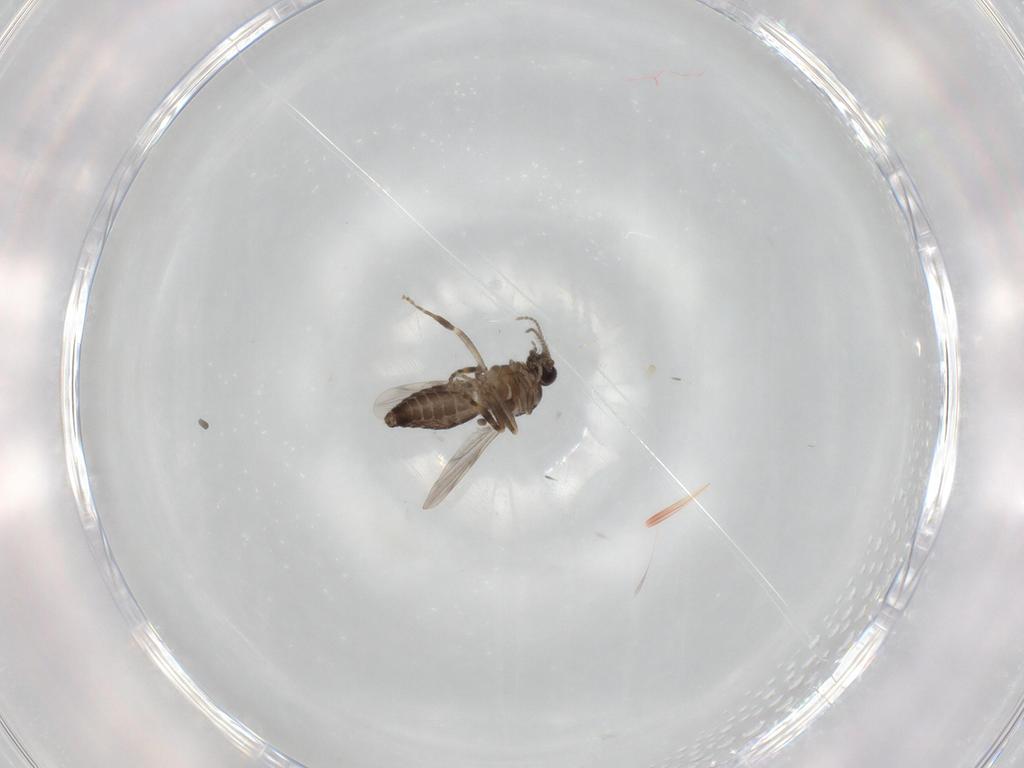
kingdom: Animalia
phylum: Arthropoda
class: Insecta
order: Diptera
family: Ceratopogonidae
